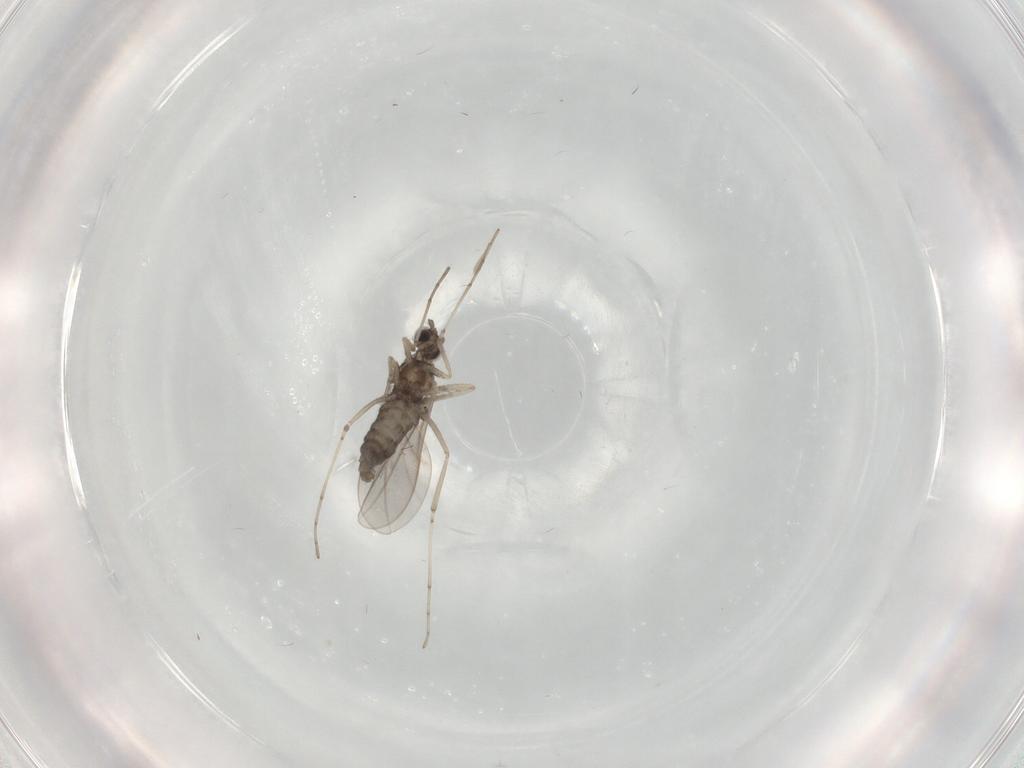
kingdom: Animalia
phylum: Arthropoda
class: Insecta
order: Diptera
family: Cecidomyiidae
